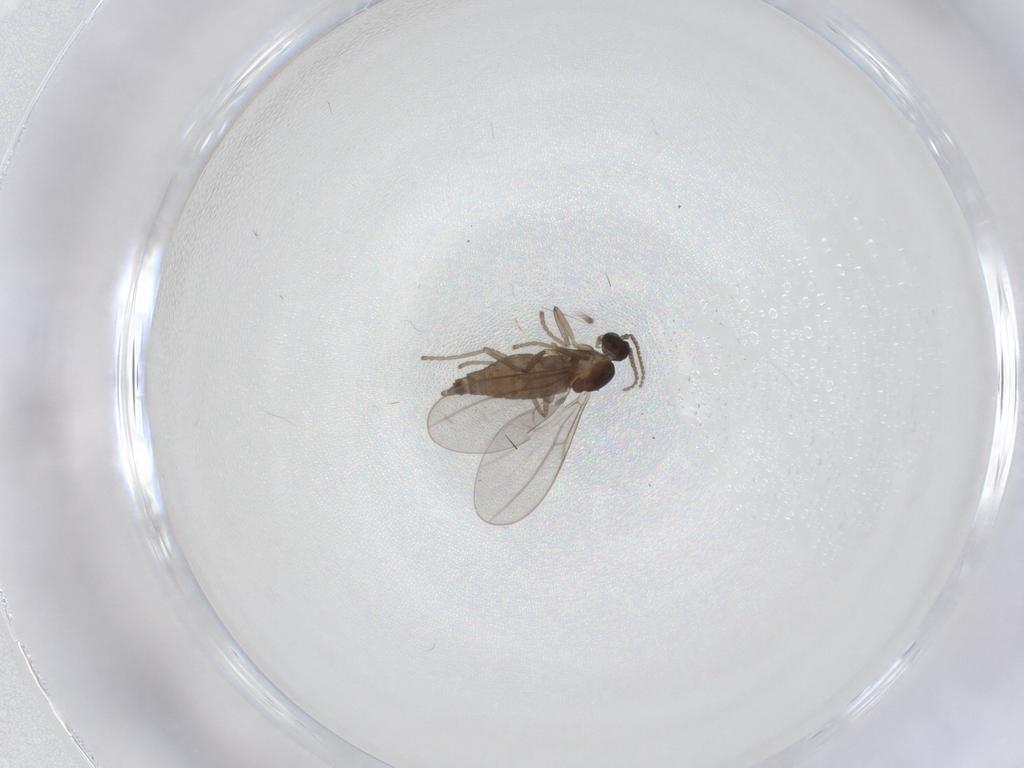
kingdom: Animalia
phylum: Arthropoda
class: Insecta
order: Diptera
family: Cecidomyiidae
